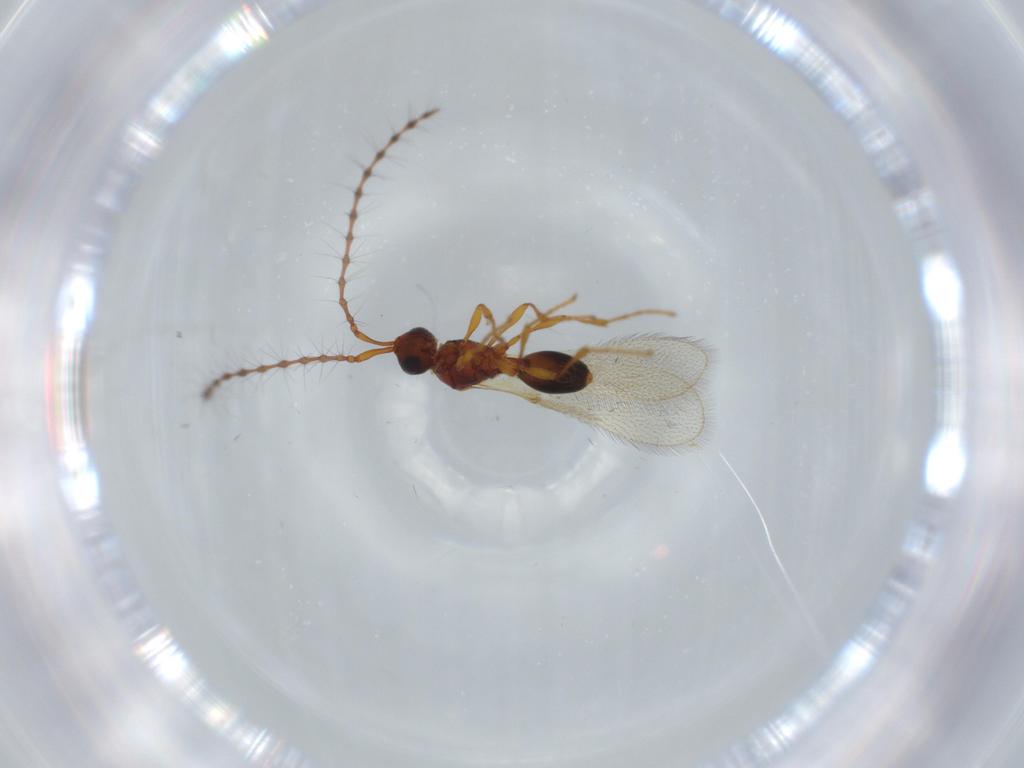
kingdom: Animalia
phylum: Arthropoda
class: Insecta
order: Hymenoptera
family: Diapriidae
